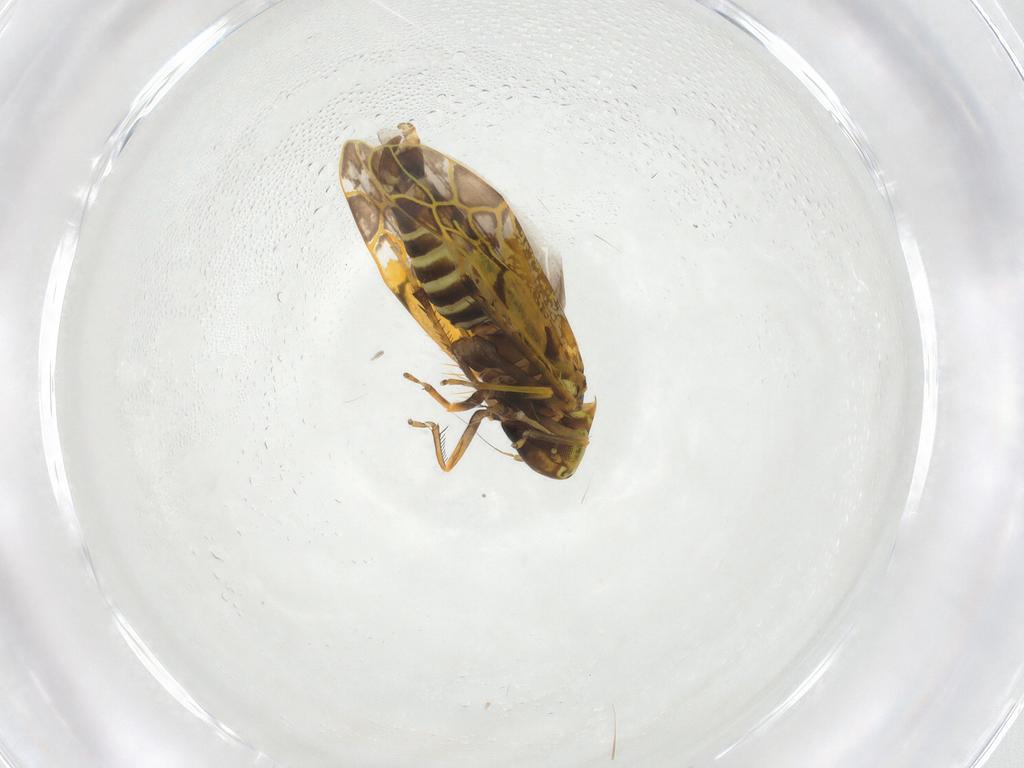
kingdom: Animalia
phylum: Arthropoda
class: Insecta
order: Hemiptera
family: Cicadellidae
